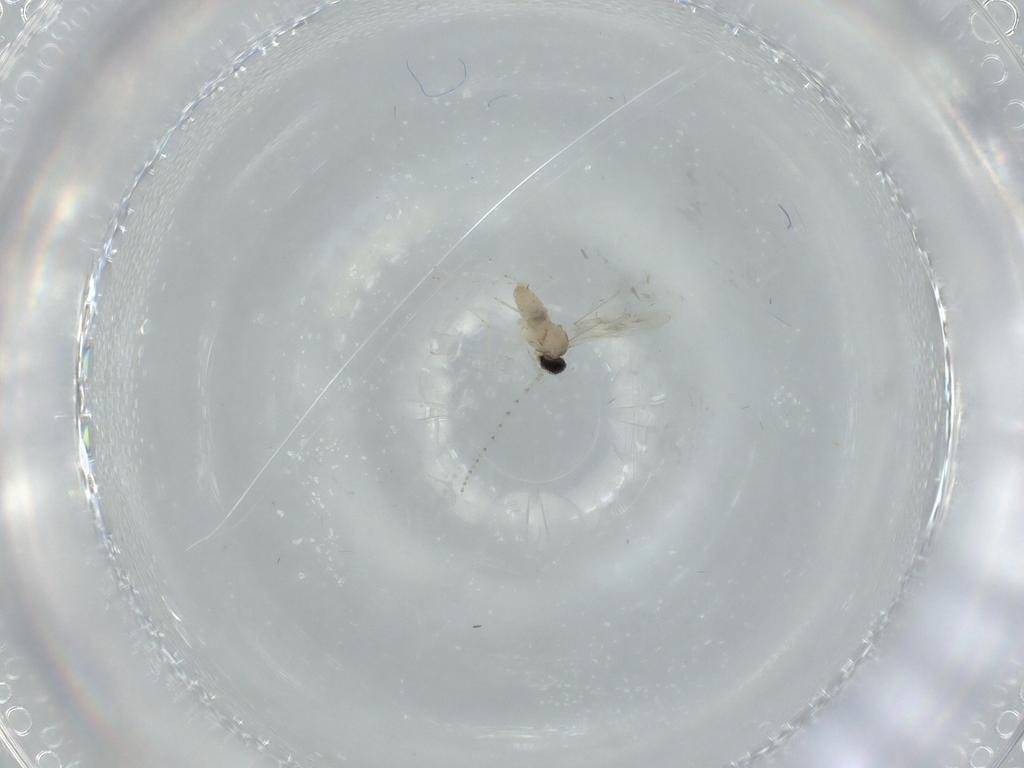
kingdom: Animalia
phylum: Arthropoda
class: Insecta
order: Diptera
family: Cecidomyiidae
